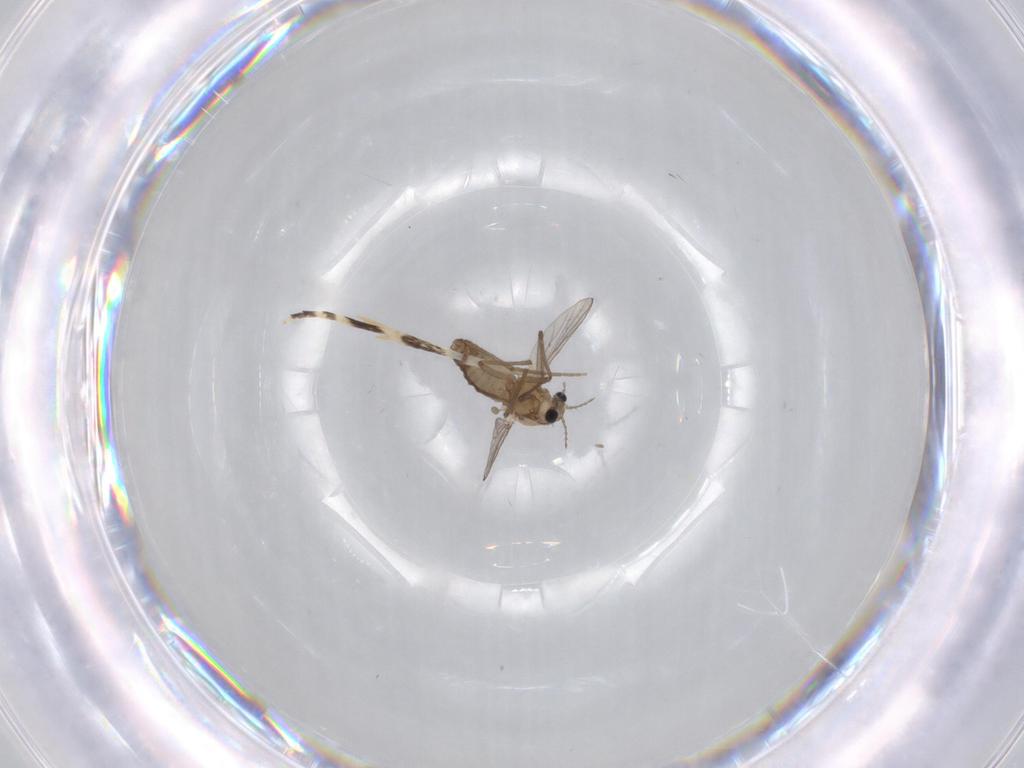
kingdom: Animalia
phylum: Arthropoda
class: Insecta
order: Diptera
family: Chironomidae
